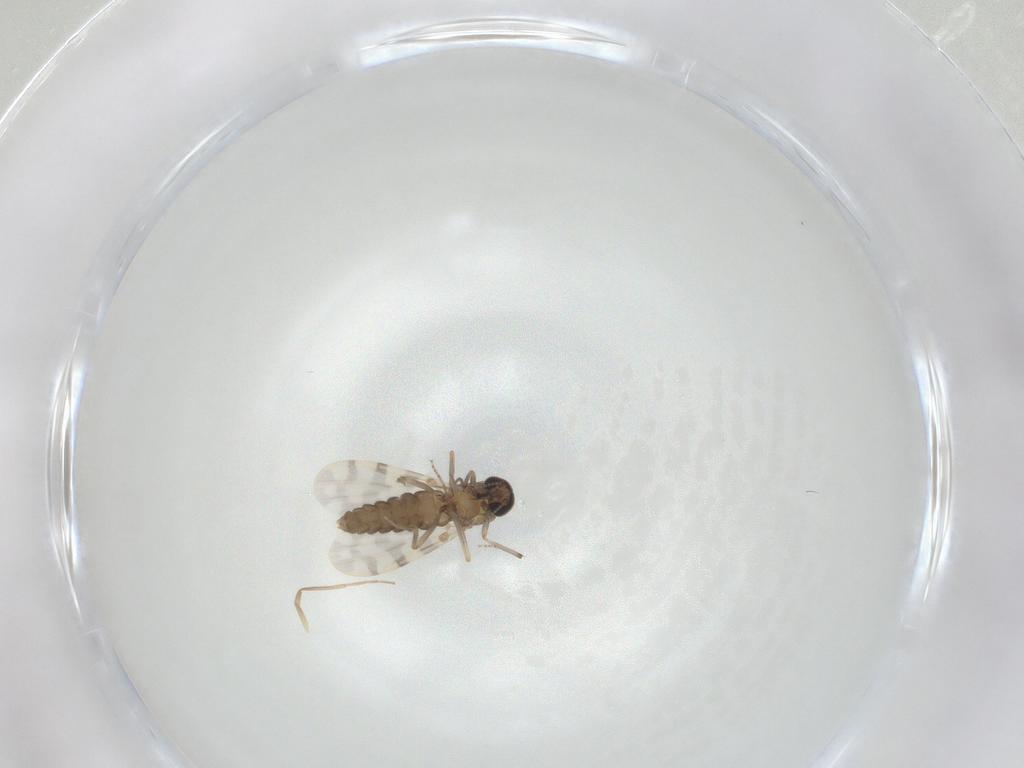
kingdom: Animalia
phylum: Arthropoda
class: Insecta
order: Diptera
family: Ceratopogonidae
